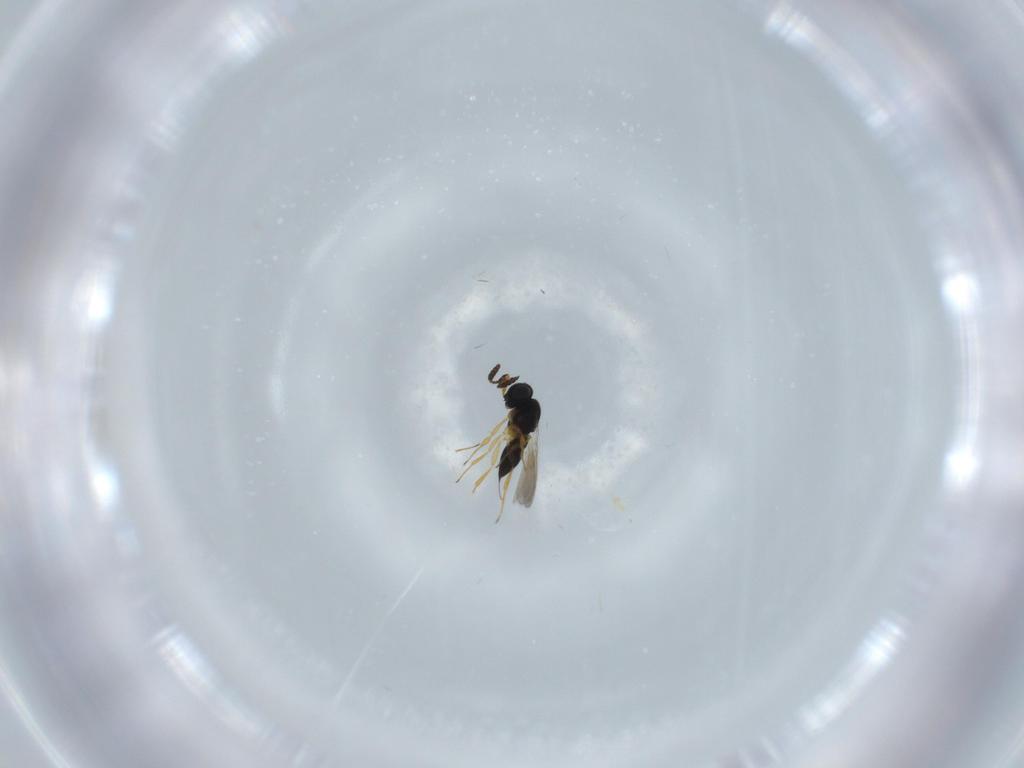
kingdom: Animalia
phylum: Arthropoda
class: Insecta
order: Hymenoptera
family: Scelionidae
